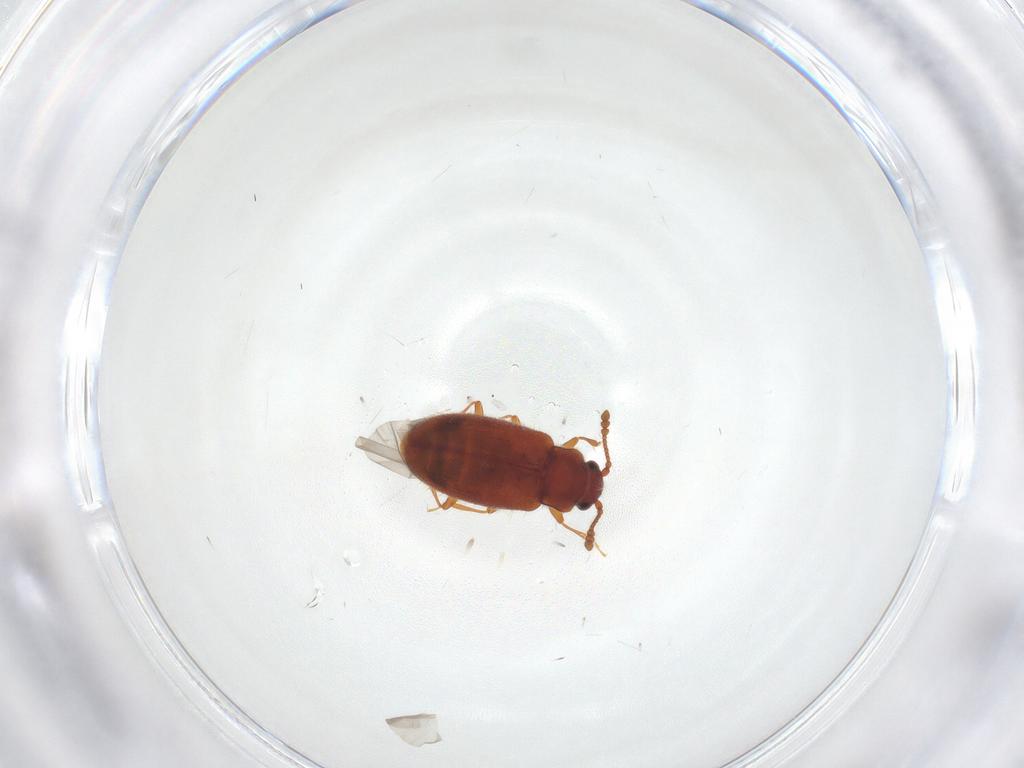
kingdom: Animalia
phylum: Arthropoda
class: Insecta
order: Coleoptera
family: Cryptophagidae
